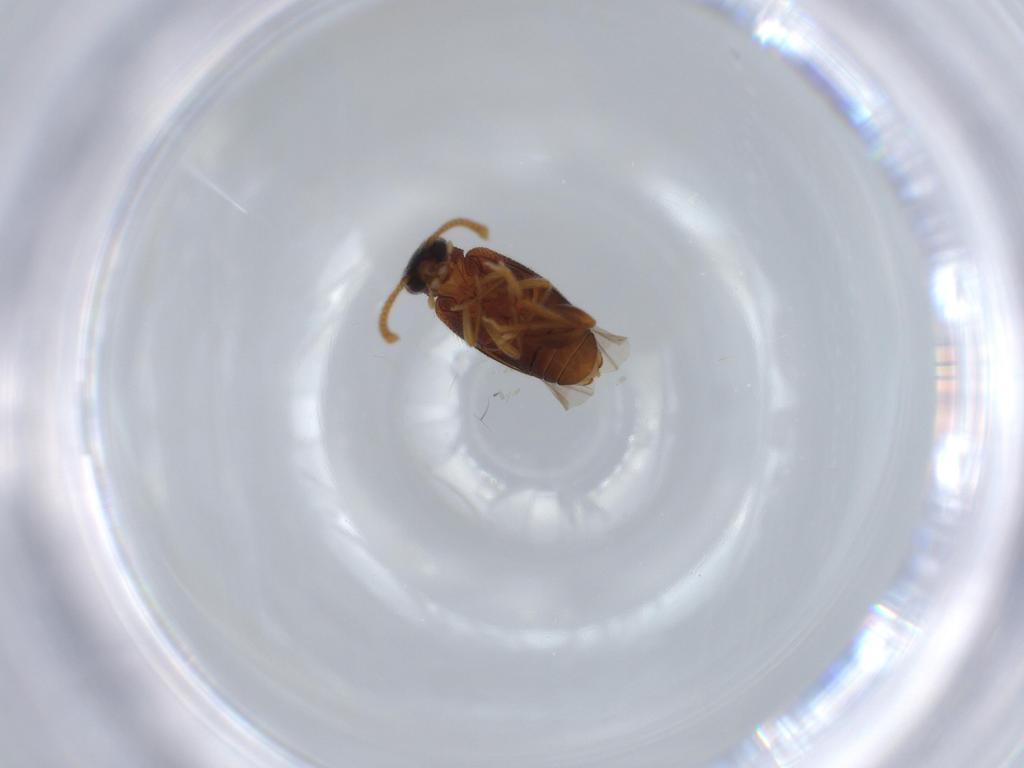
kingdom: Animalia
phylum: Arthropoda
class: Insecta
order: Coleoptera
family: Aderidae
